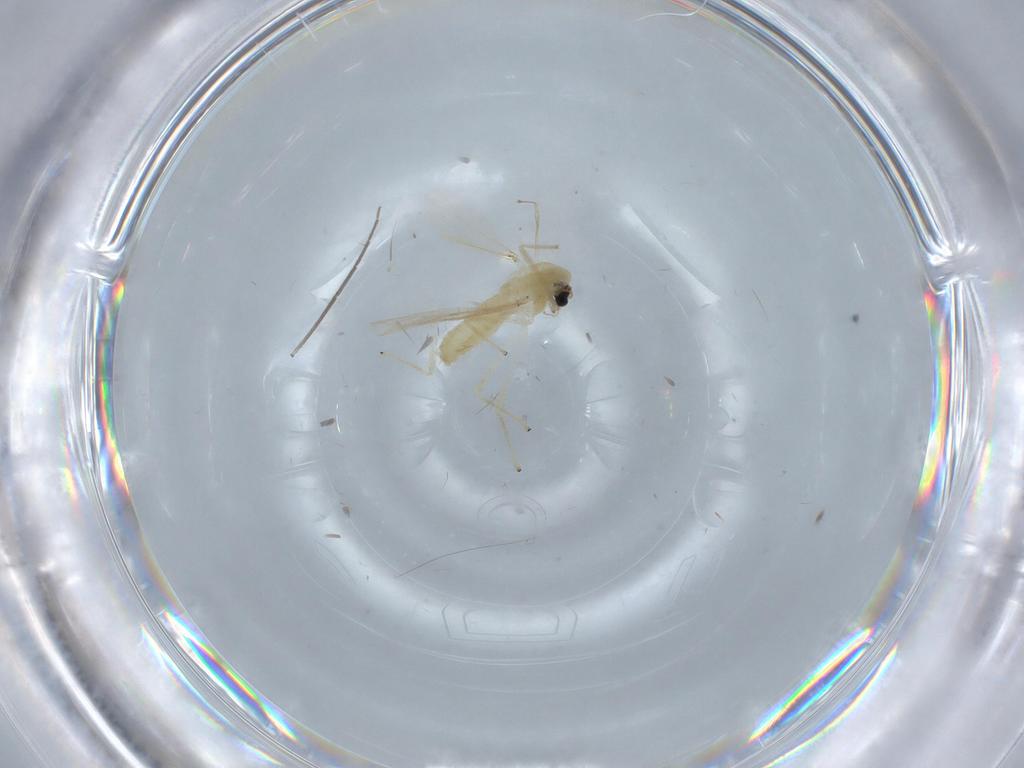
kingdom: Animalia
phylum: Arthropoda
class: Insecta
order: Diptera
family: Chironomidae
